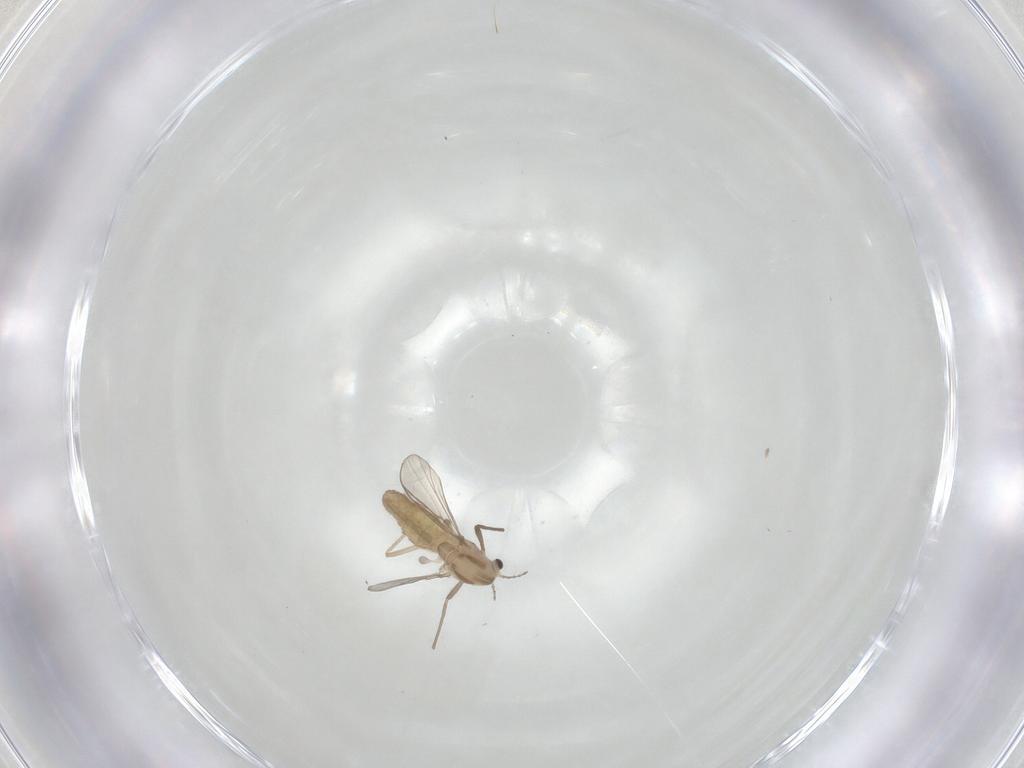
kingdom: Animalia
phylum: Arthropoda
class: Insecta
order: Diptera
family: Chironomidae
